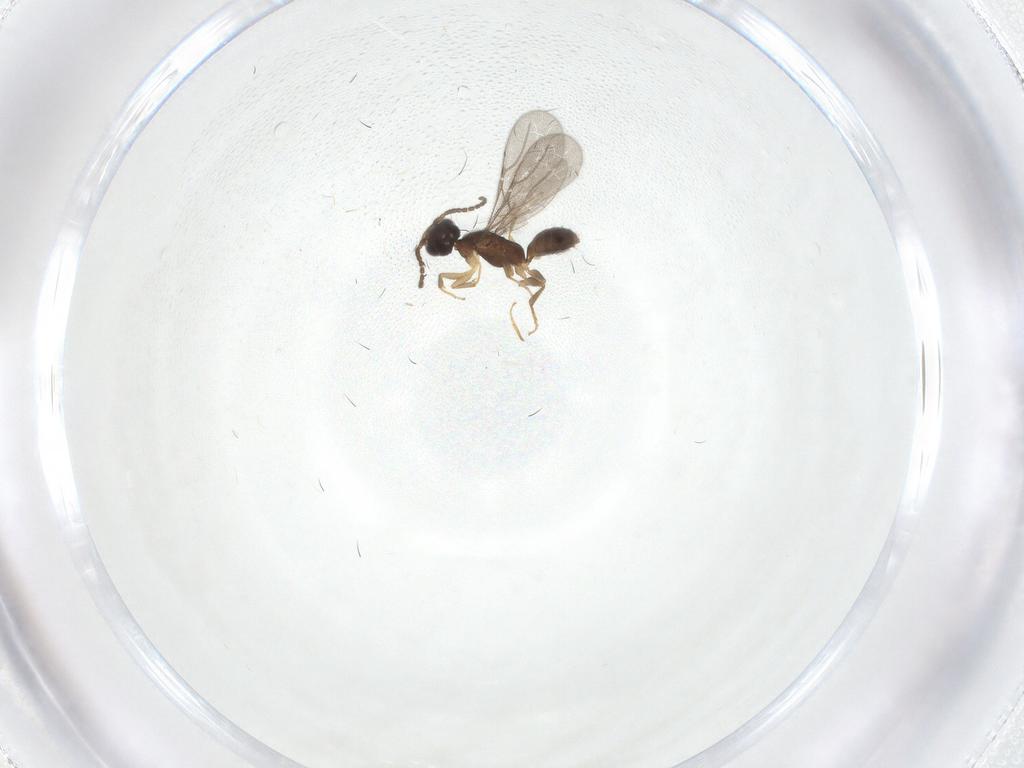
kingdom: Animalia
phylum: Arthropoda
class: Insecta
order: Hymenoptera
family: Bethylidae
